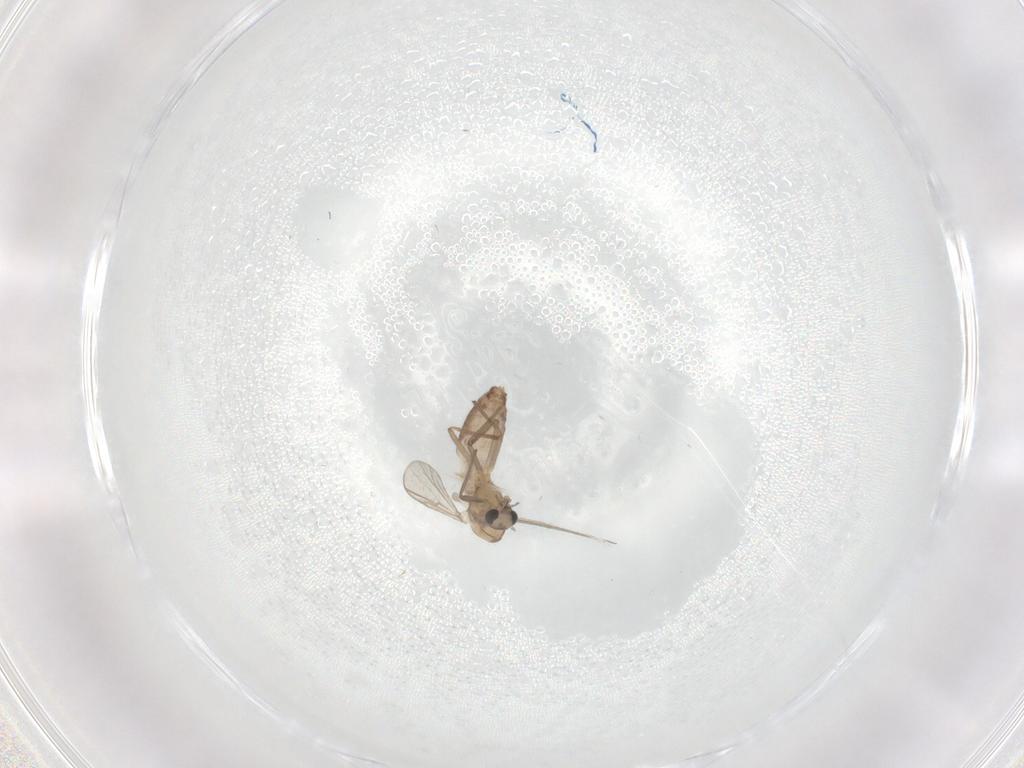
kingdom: Animalia
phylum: Arthropoda
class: Insecta
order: Diptera
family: Chironomidae
